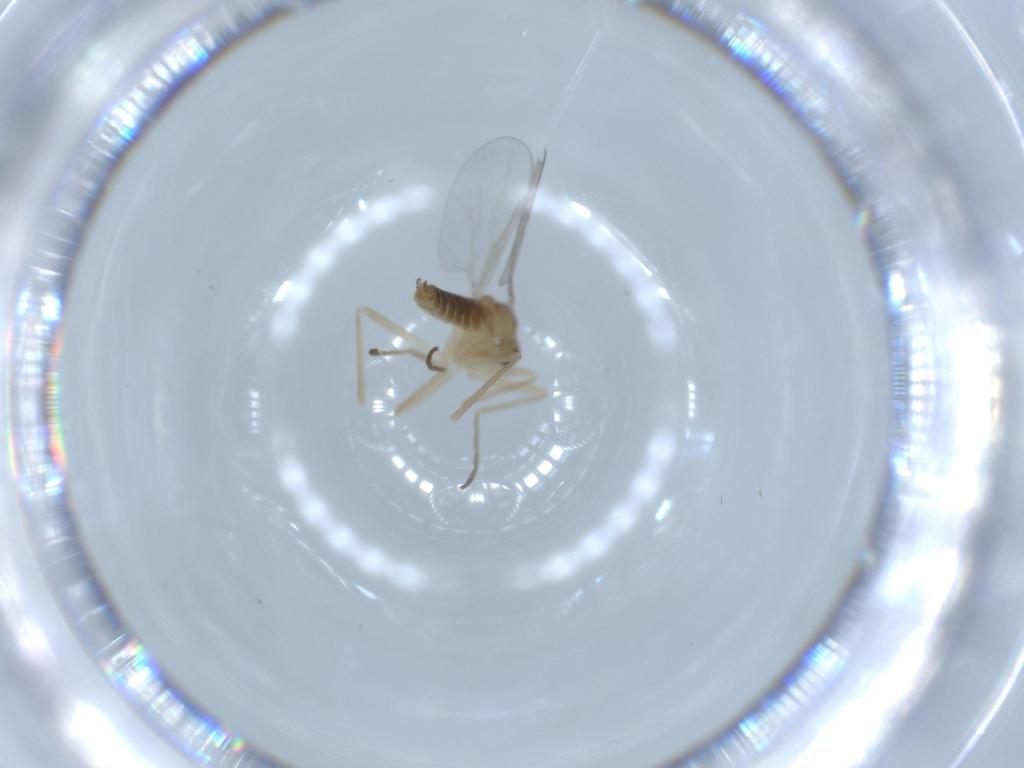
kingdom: Animalia
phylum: Arthropoda
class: Insecta
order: Diptera
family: Cecidomyiidae
